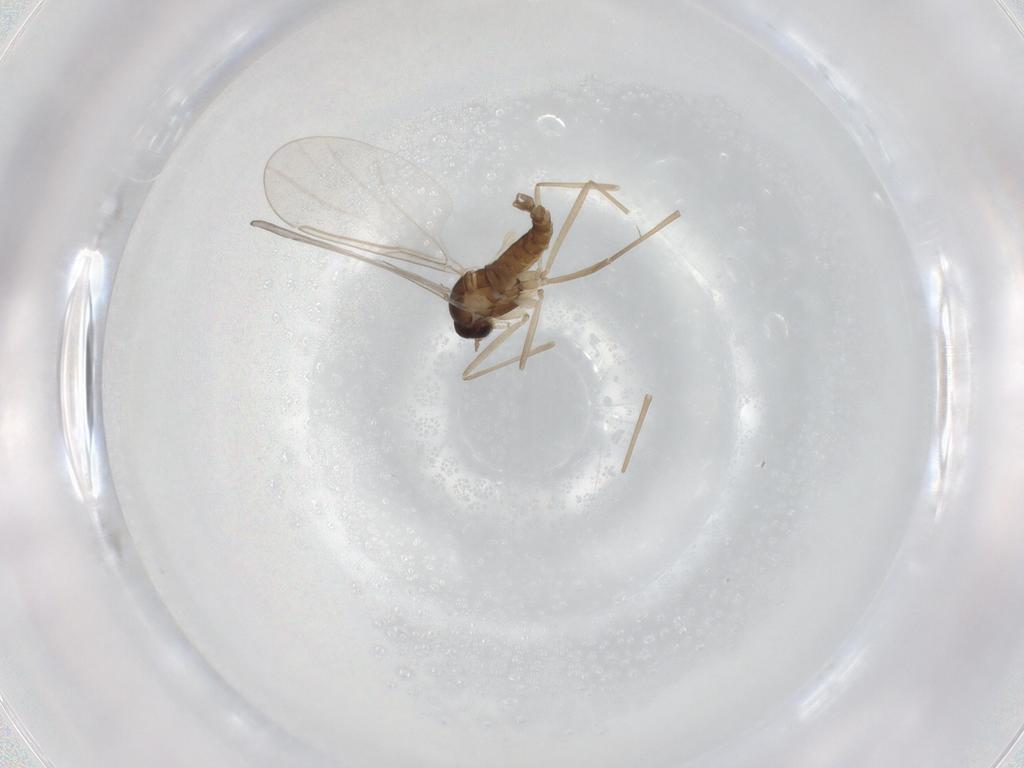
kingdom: Animalia
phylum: Arthropoda
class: Insecta
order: Diptera
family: Cecidomyiidae
